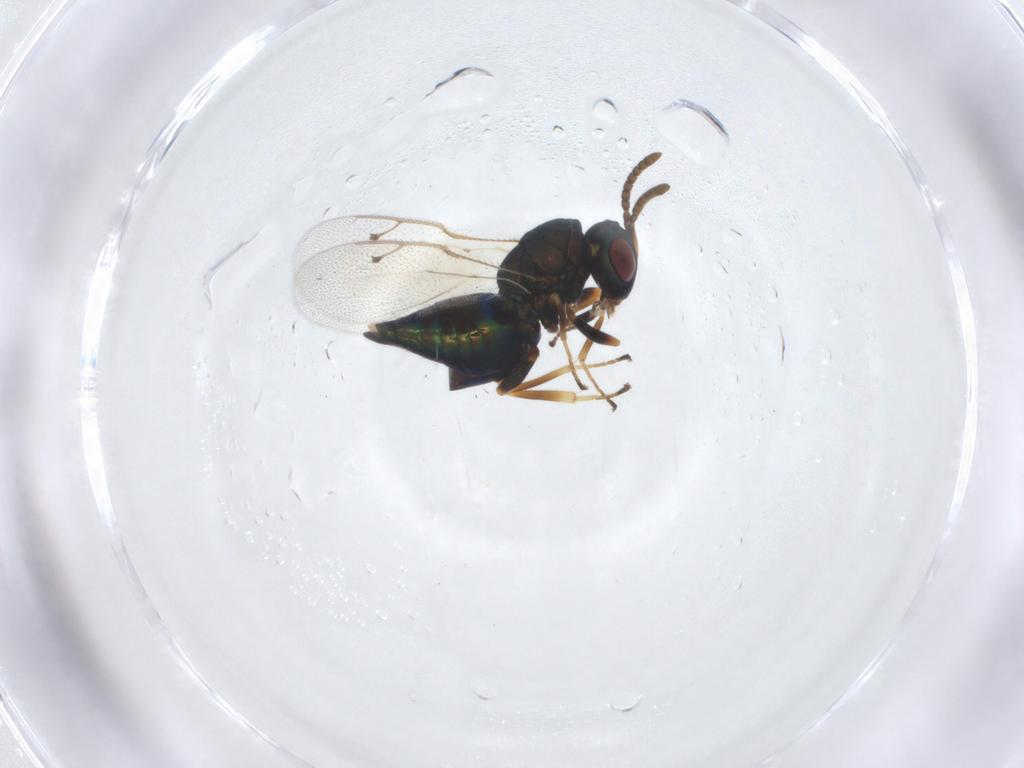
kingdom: Animalia
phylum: Arthropoda
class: Insecta
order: Hymenoptera
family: Pteromalidae
